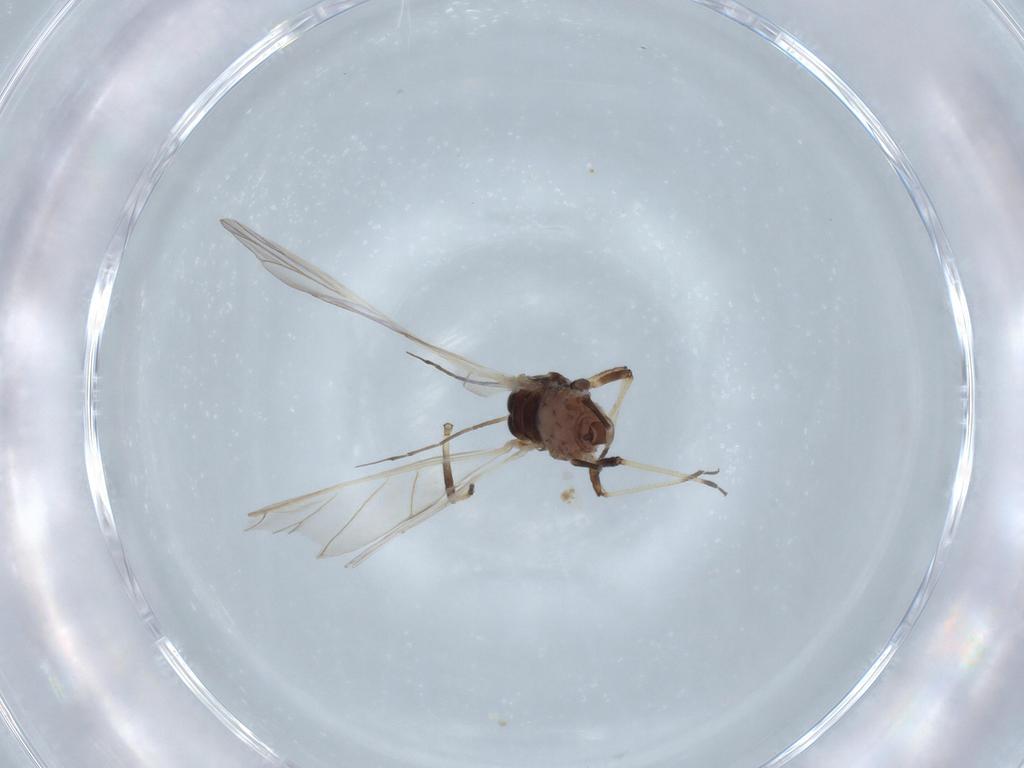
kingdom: Animalia
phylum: Arthropoda
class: Insecta
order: Hemiptera
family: Aphididae
